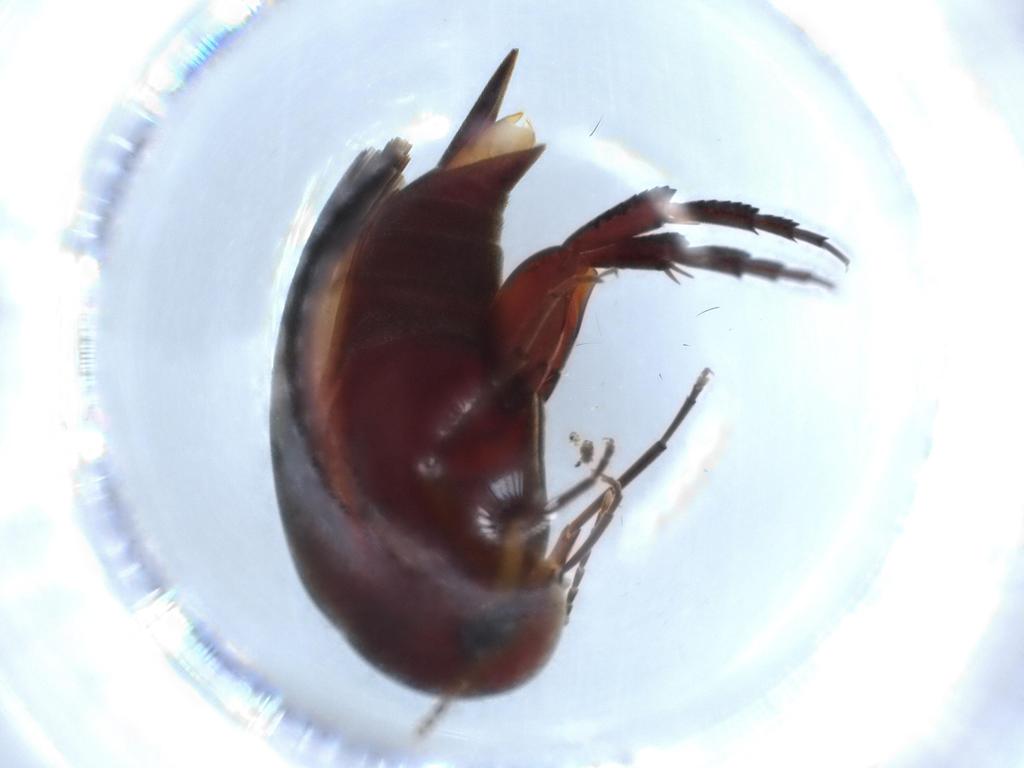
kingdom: Animalia
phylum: Arthropoda
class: Insecta
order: Coleoptera
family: Mordellidae
